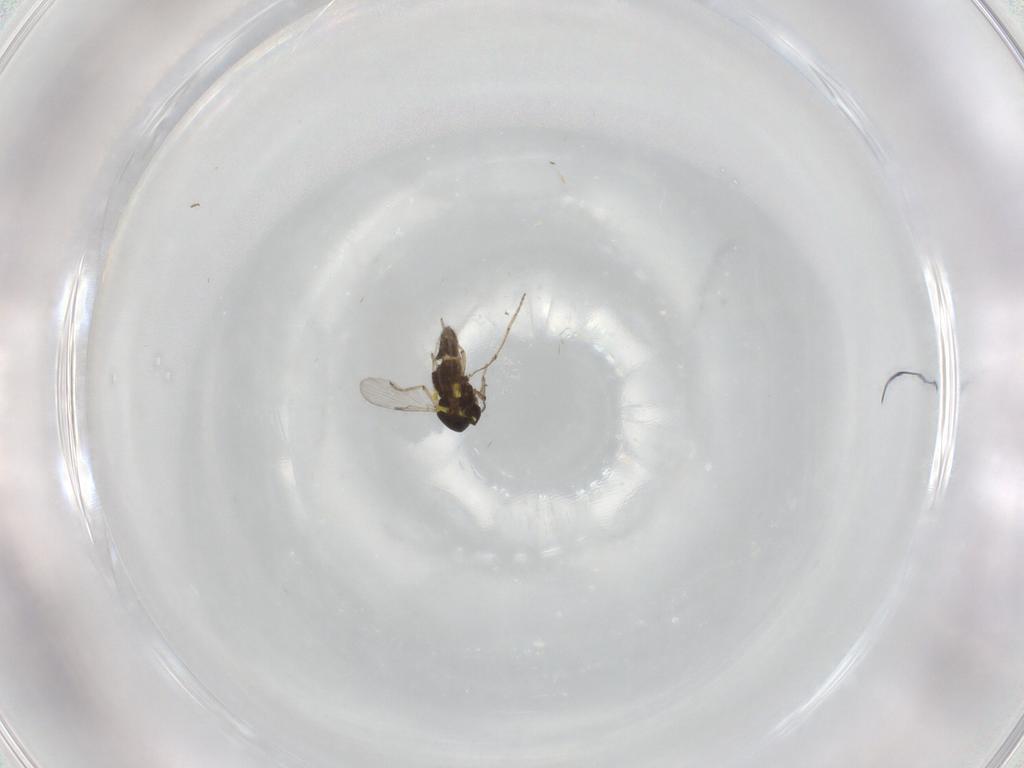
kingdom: Animalia
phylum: Arthropoda
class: Insecta
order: Diptera
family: Ceratopogonidae
